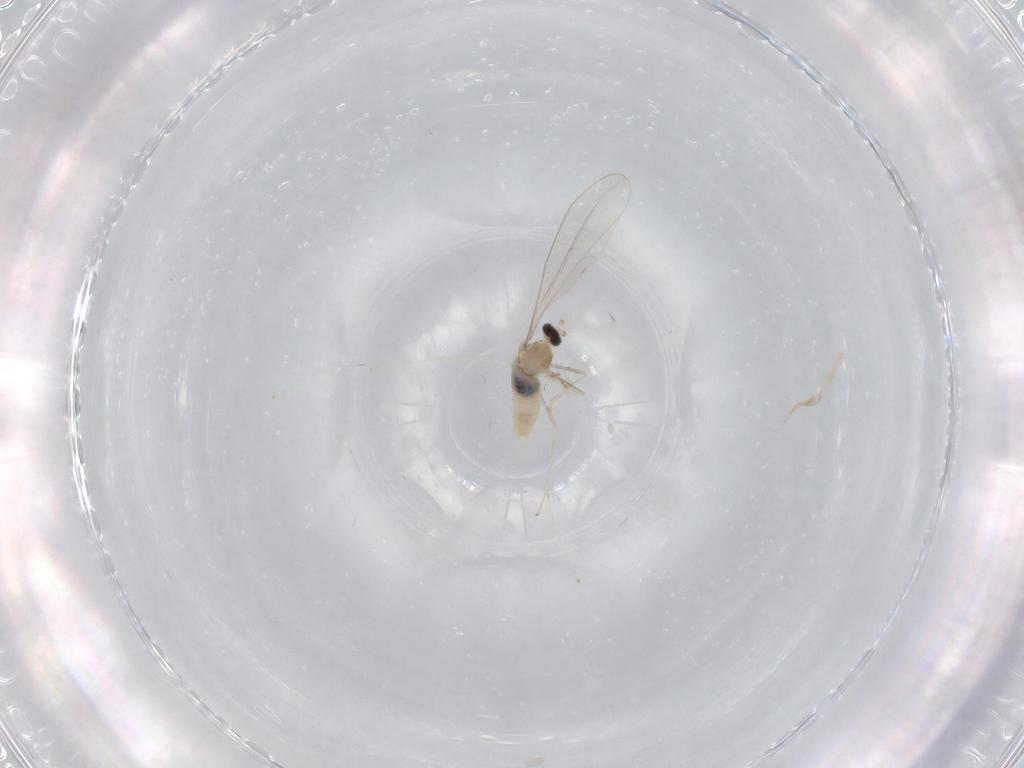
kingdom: Animalia
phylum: Arthropoda
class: Insecta
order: Diptera
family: Cecidomyiidae
